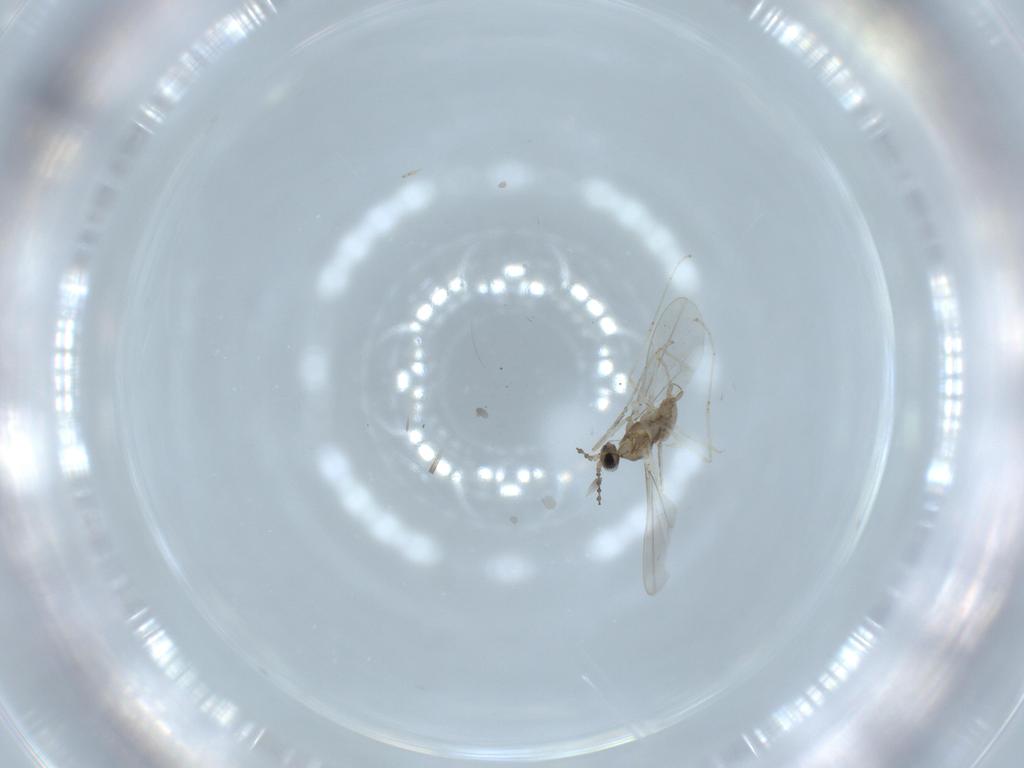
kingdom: Animalia
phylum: Arthropoda
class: Insecta
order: Diptera
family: Cecidomyiidae
